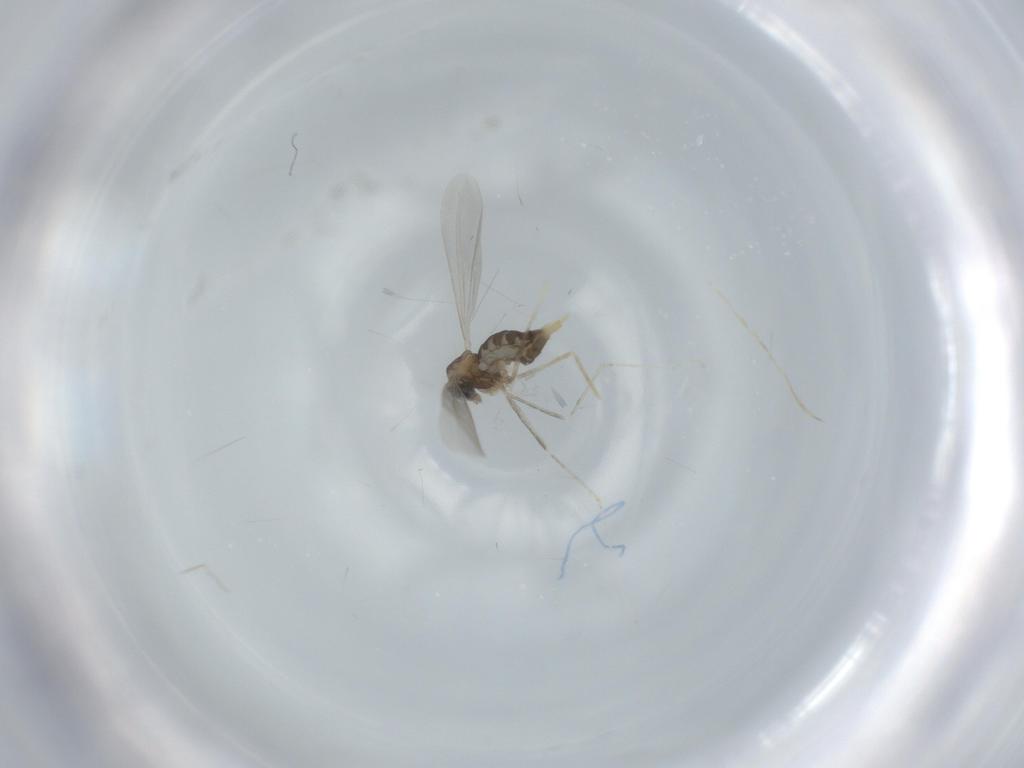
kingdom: Animalia
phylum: Arthropoda
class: Insecta
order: Diptera
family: Cecidomyiidae
